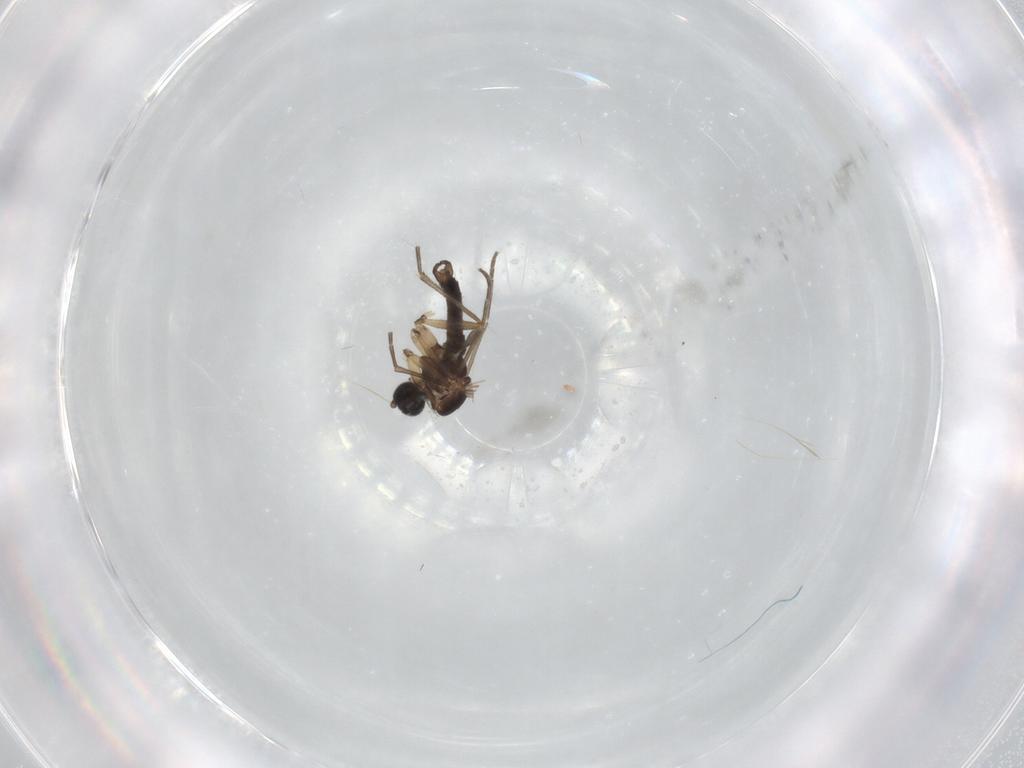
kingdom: Animalia
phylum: Arthropoda
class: Insecta
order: Diptera
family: Sciaridae
